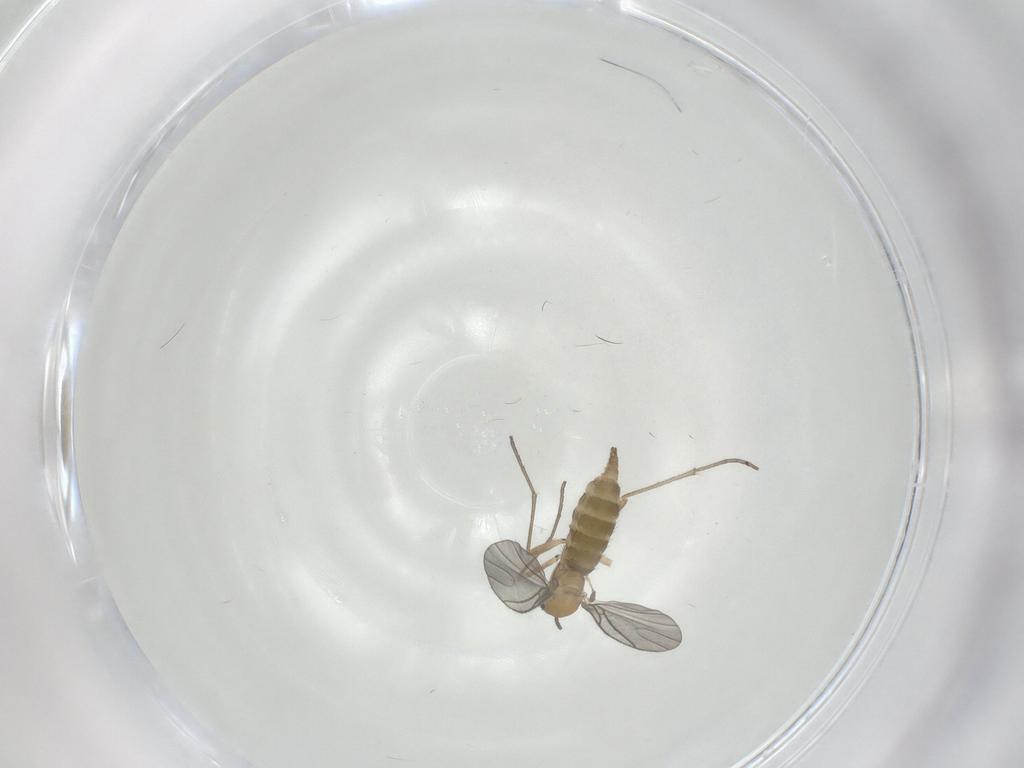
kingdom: Animalia
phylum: Arthropoda
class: Insecta
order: Diptera
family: Sciaridae
